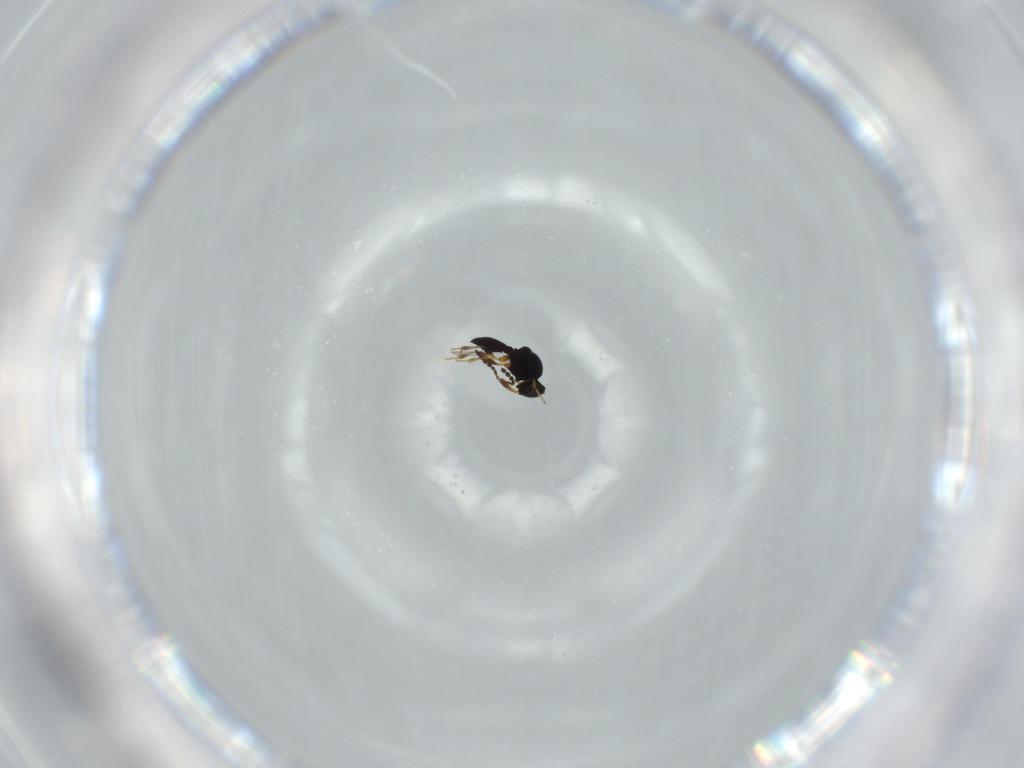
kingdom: Animalia
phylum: Arthropoda
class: Insecta
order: Hymenoptera
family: Platygastridae
